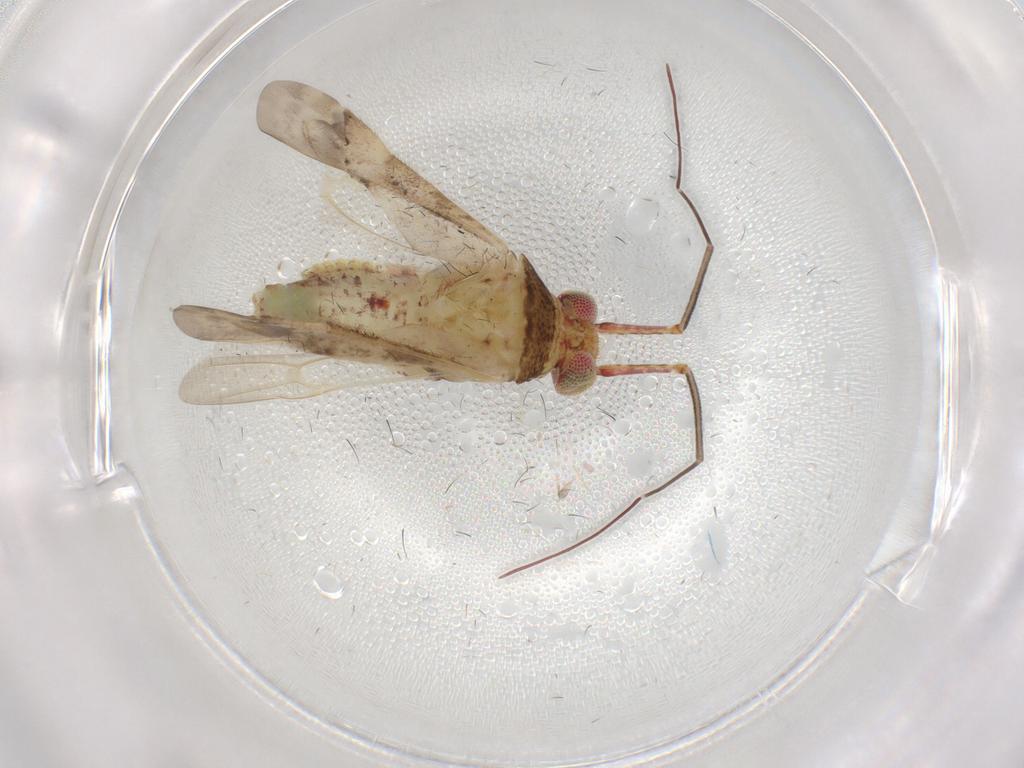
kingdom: Animalia
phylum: Arthropoda
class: Insecta
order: Hemiptera
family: Miridae
